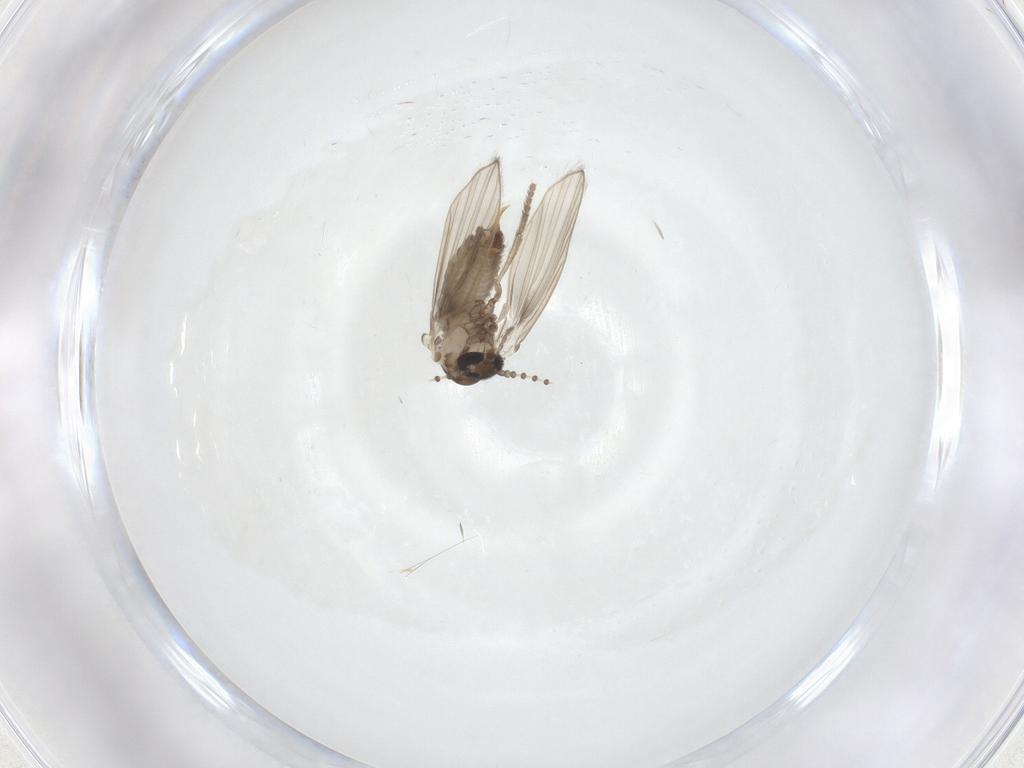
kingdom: Animalia
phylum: Arthropoda
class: Insecta
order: Diptera
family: Psychodidae
